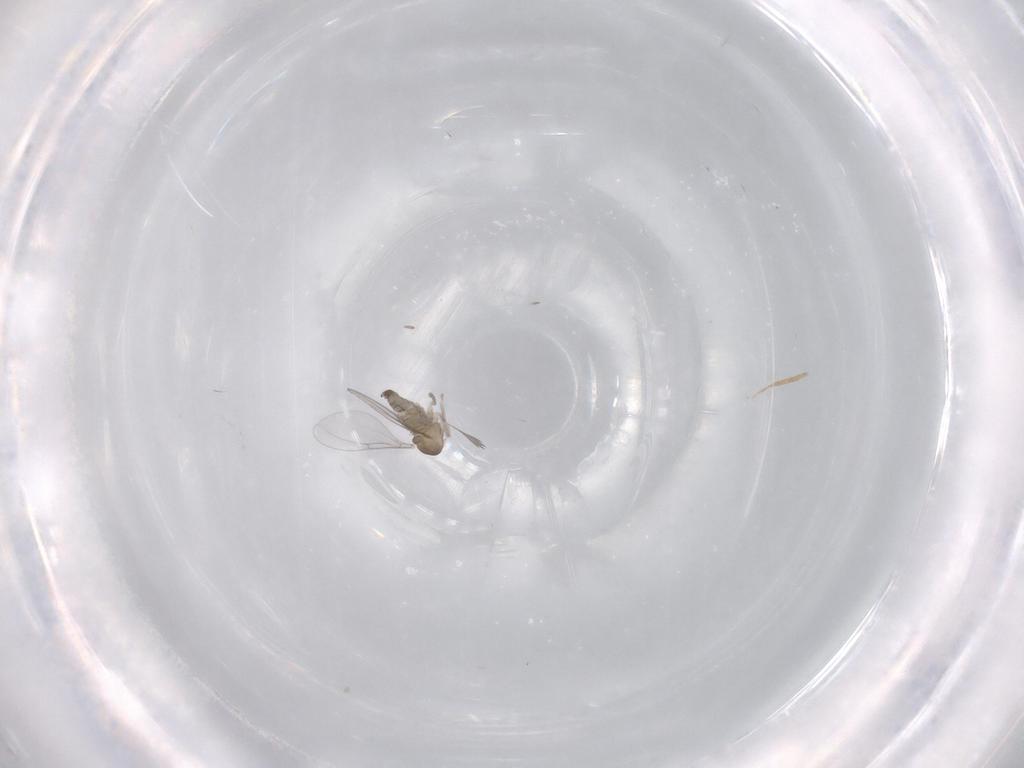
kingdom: Animalia
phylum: Arthropoda
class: Insecta
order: Diptera
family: Cecidomyiidae
